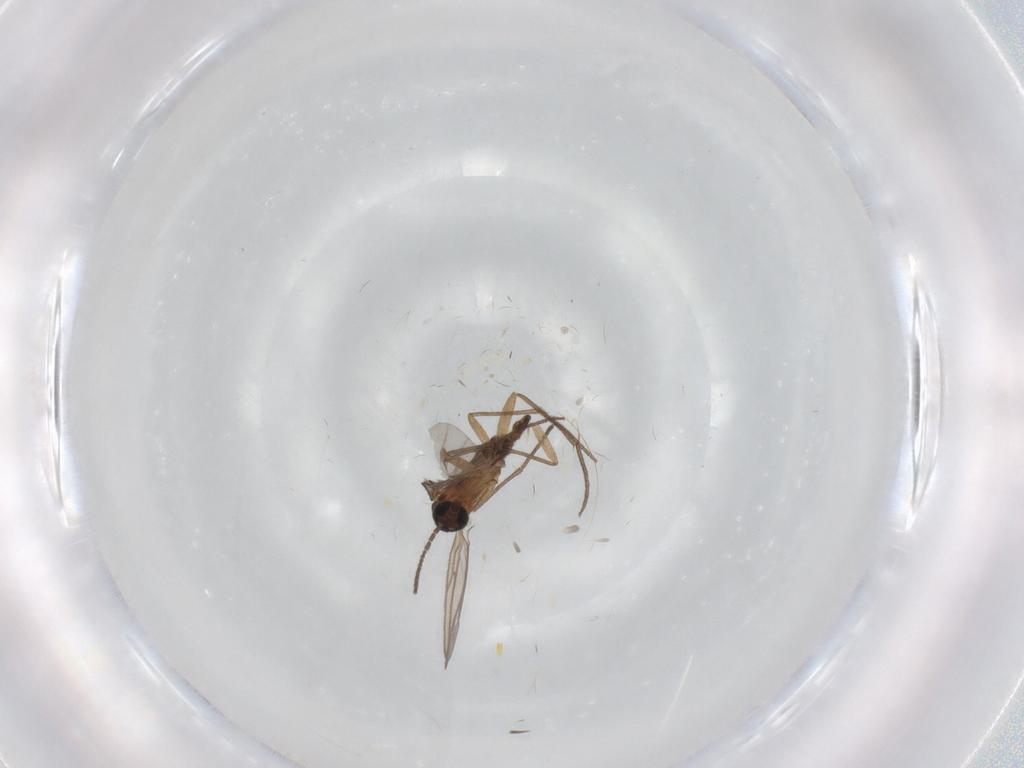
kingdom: Animalia
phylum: Arthropoda
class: Insecta
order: Diptera
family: Sciaridae
